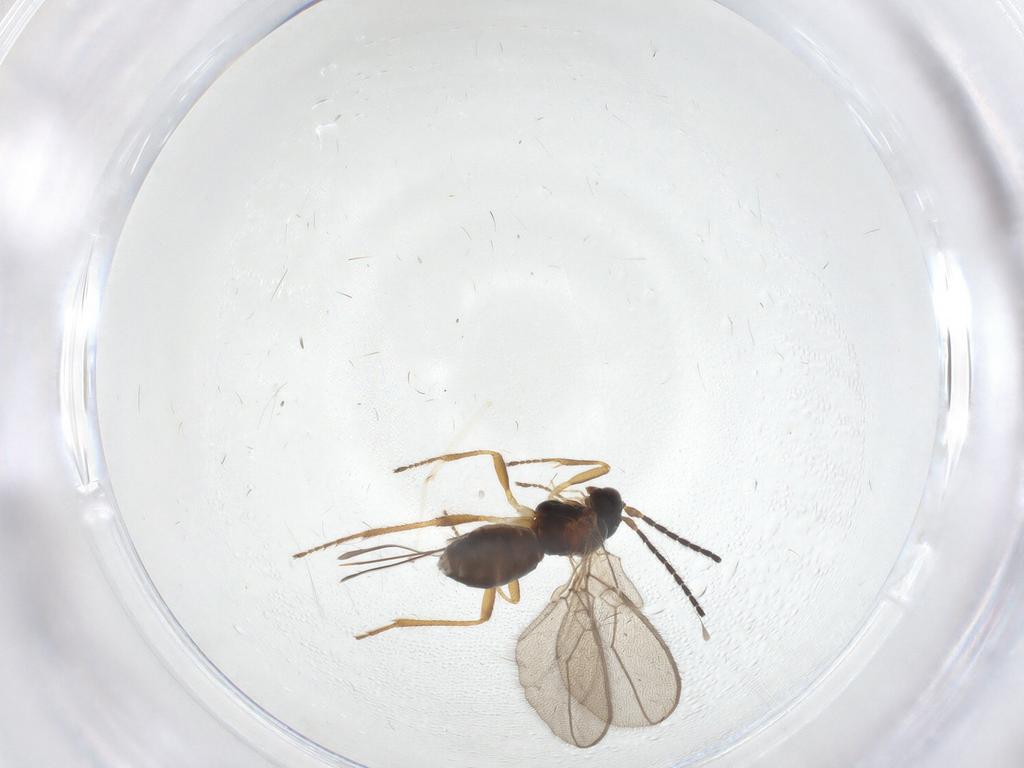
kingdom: Animalia
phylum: Arthropoda
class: Insecta
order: Hymenoptera
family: Braconidae
